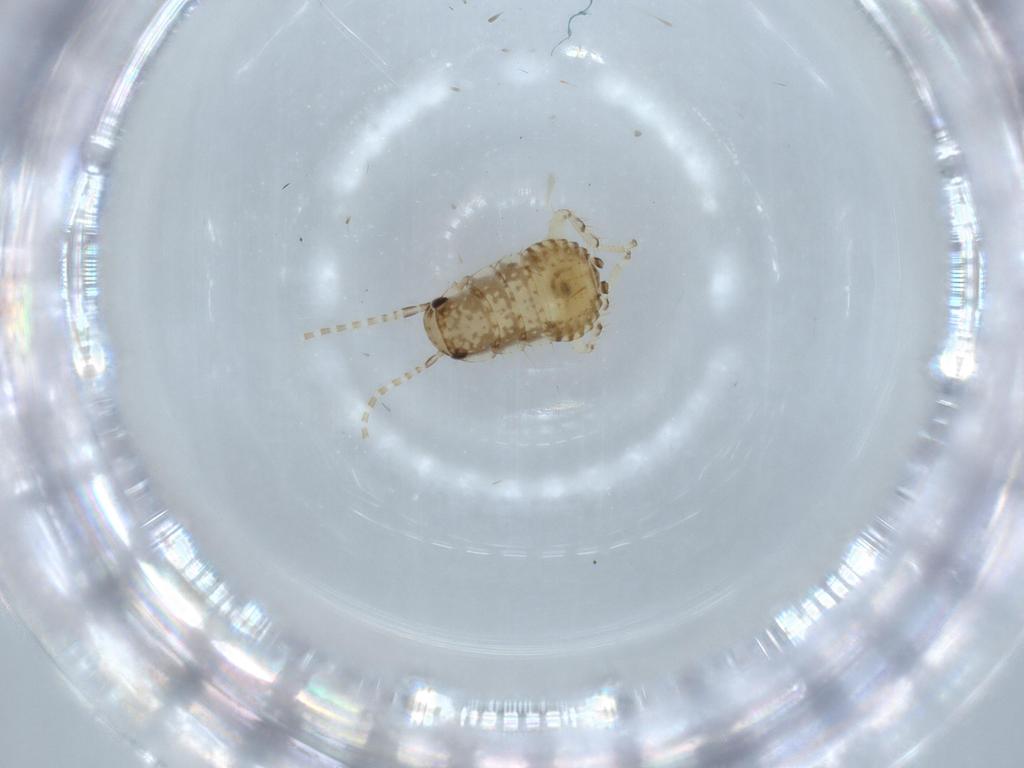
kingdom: Animalia
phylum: Arthropoda
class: Insecta
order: Blattodea
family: Ectobiidae
